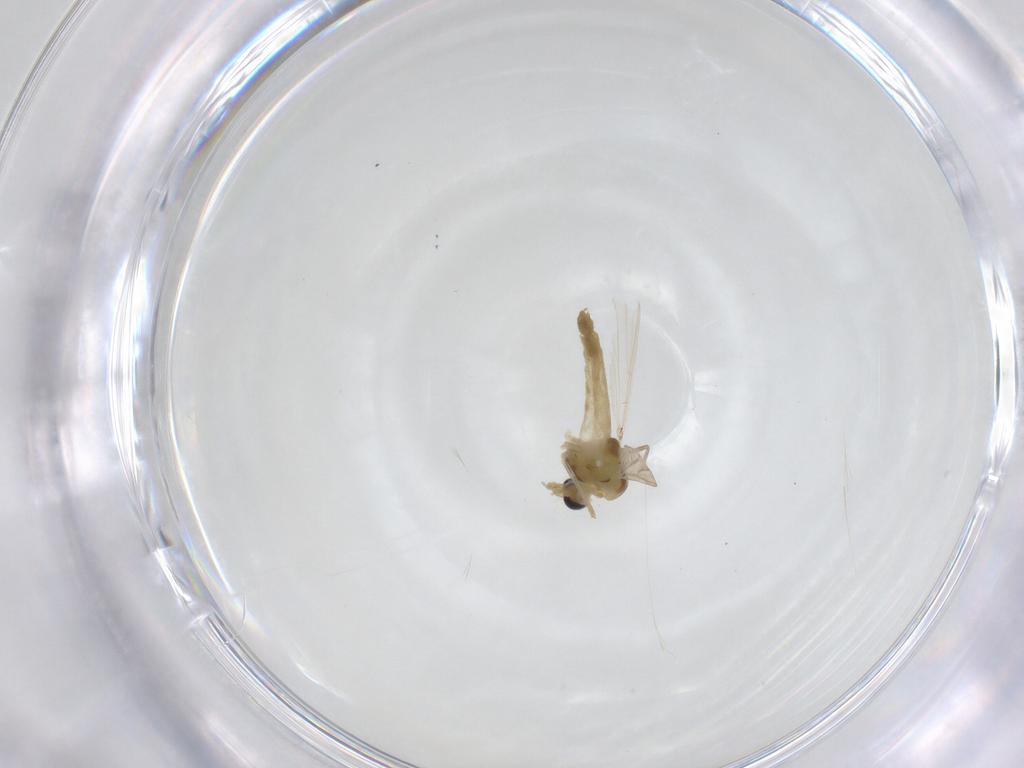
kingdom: Animalia
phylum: Arthropoda
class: Insecta
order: Diptera
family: Chironomidae
